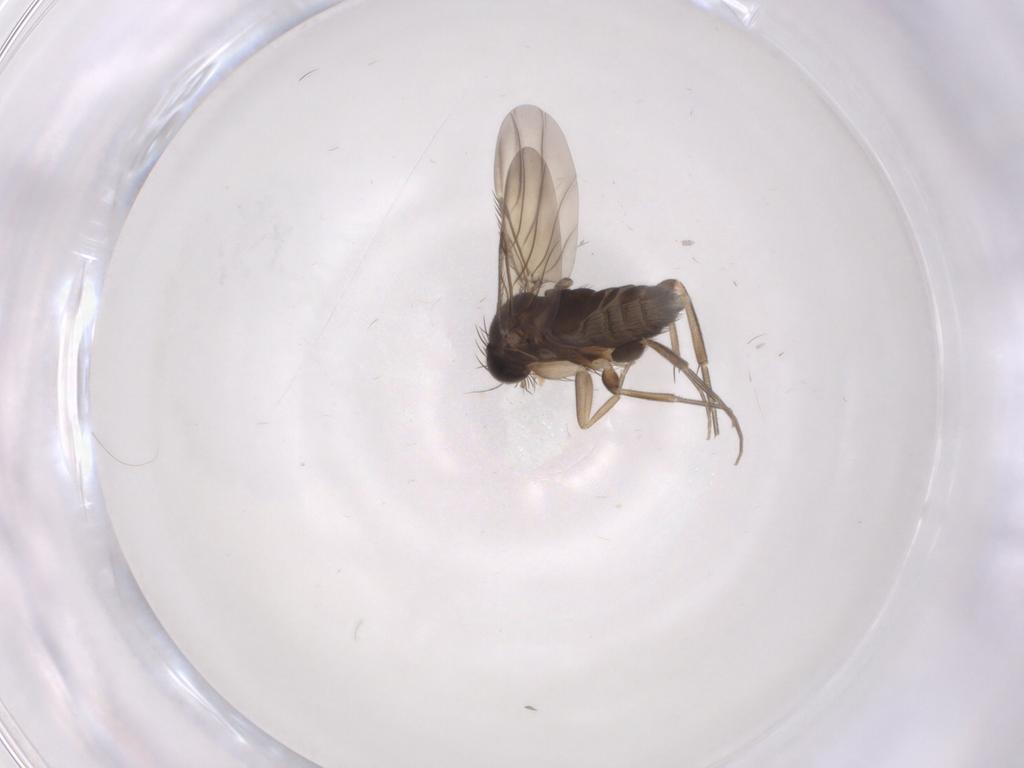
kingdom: Animalia
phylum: Arthropoda
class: Insecta
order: Diptera
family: Phoridae
